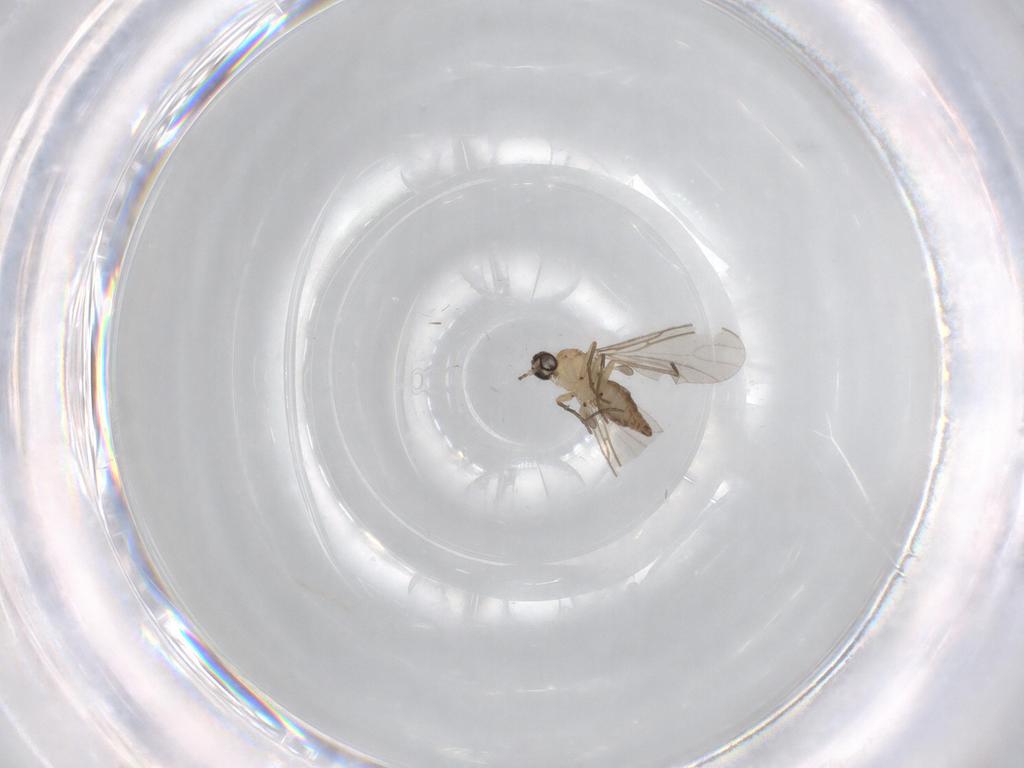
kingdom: Animalia
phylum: Arthropoda
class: Insecta
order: Diptera
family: Sciaridae
